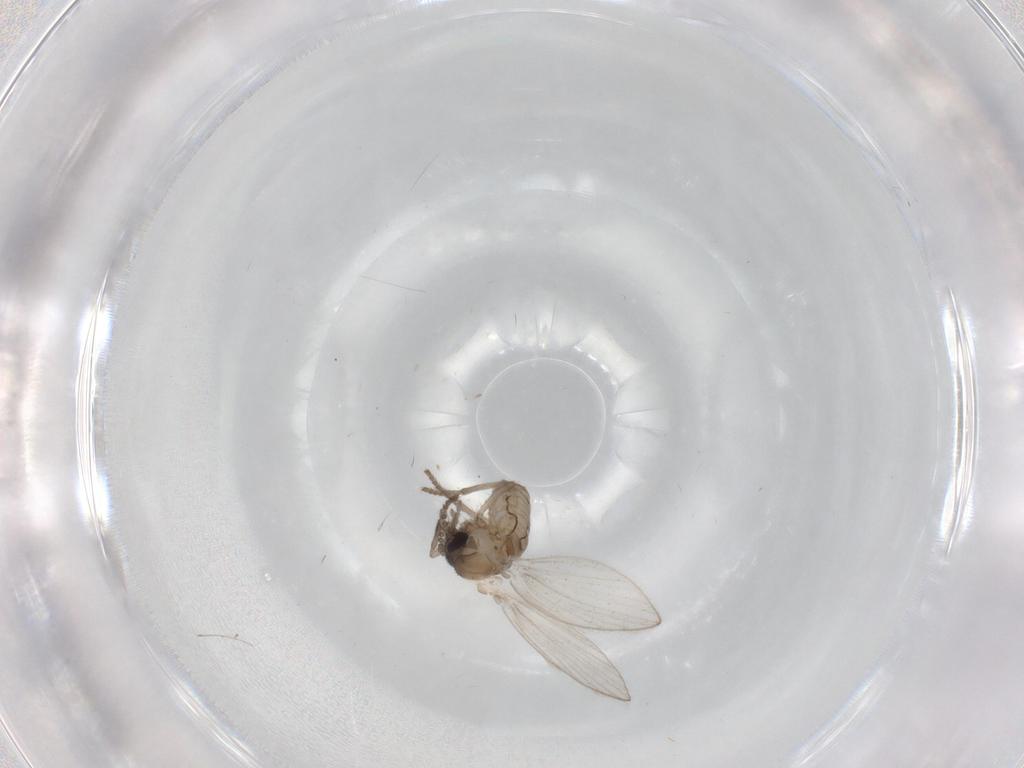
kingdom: Animalia
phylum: Arthropoda
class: Insecta
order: Diptera
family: Psychodidae
